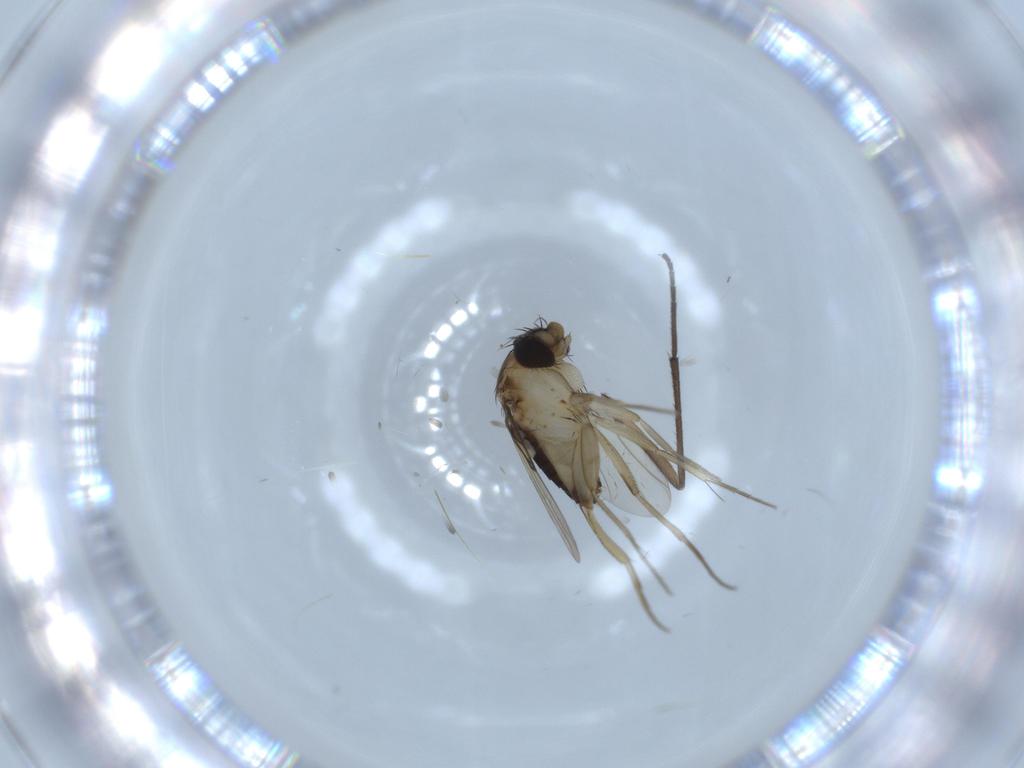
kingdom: Animalia
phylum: Arthropoda
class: Insecta
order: Diptera
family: Phoridae
